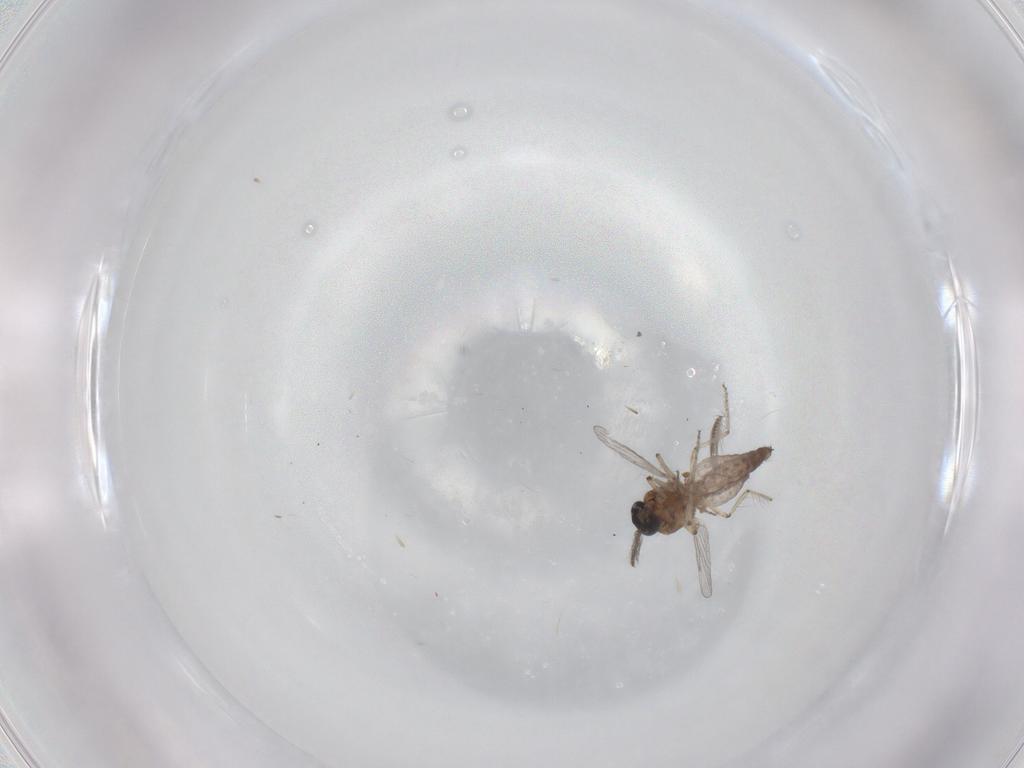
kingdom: Animalia
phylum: Arthropoda
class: Insecta
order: Diptera
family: Ceratopogonidae
